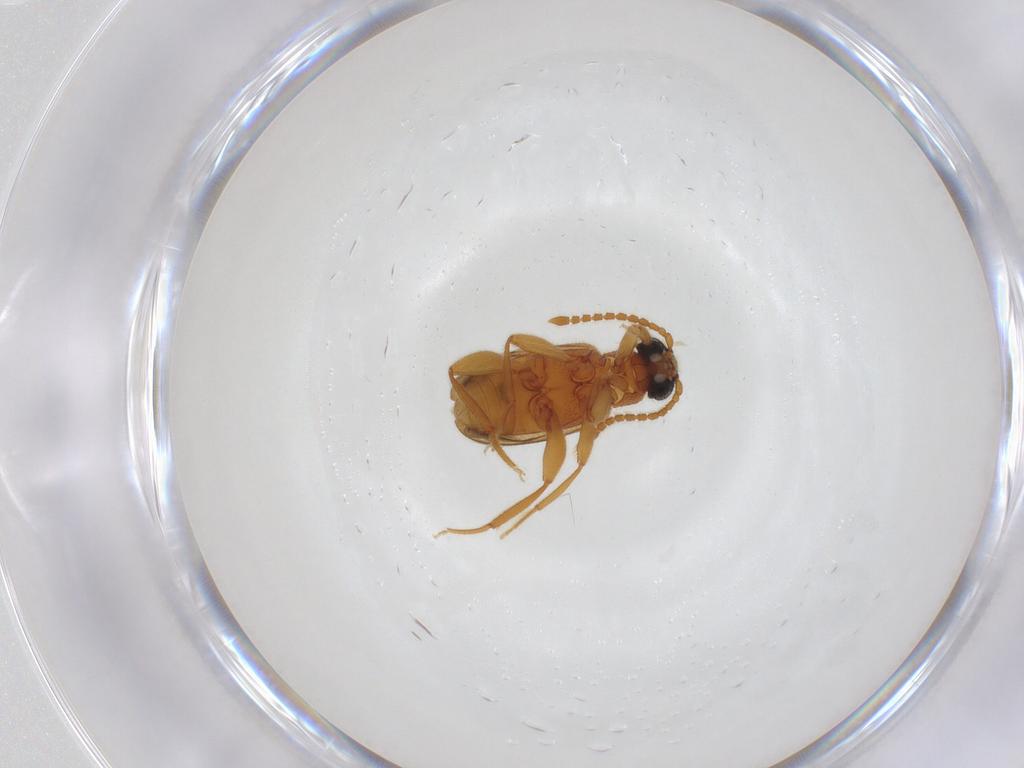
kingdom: Animalia
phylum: Arthropoda
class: Insecta
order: Coleoptera
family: Aderidae
